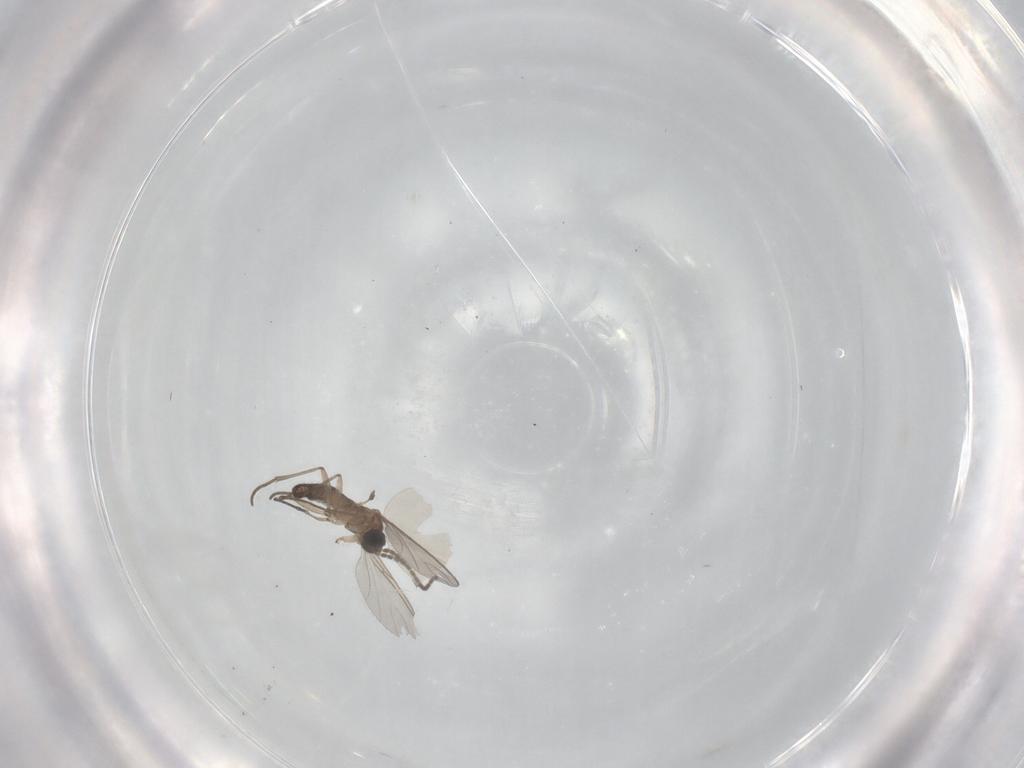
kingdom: Animalia
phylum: Arthropoda
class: Insecta
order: Diptera
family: Sciaridae
